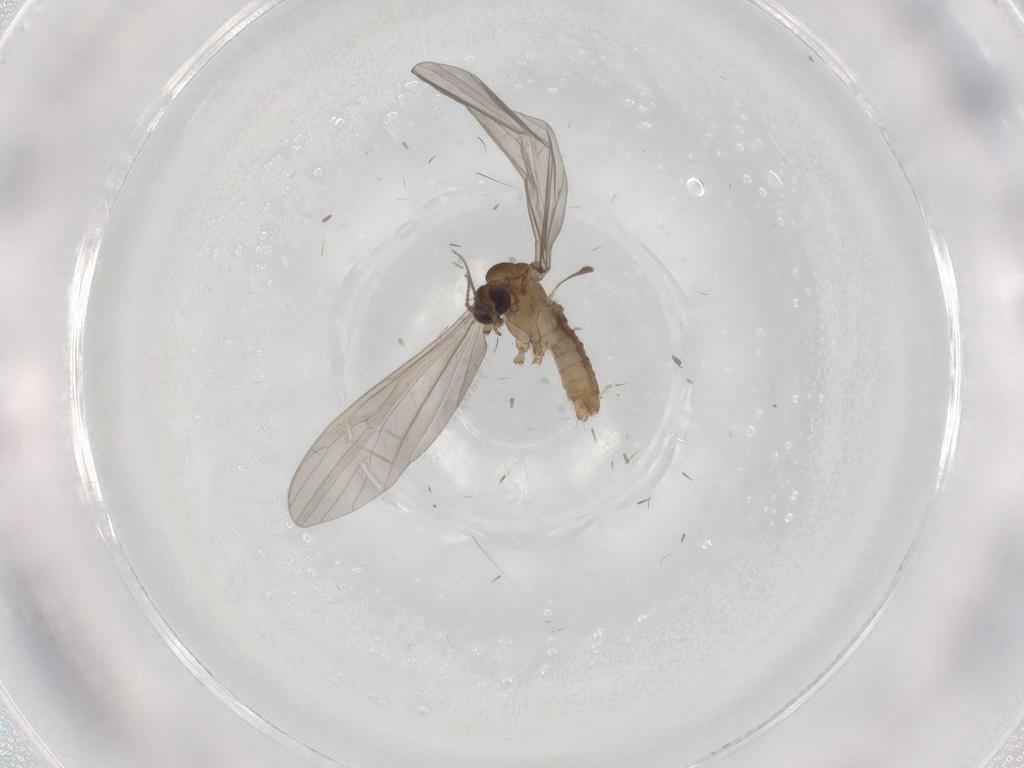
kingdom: Animalia
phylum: Arthropoda
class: Insecta
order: Diptera
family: Limoniidae
